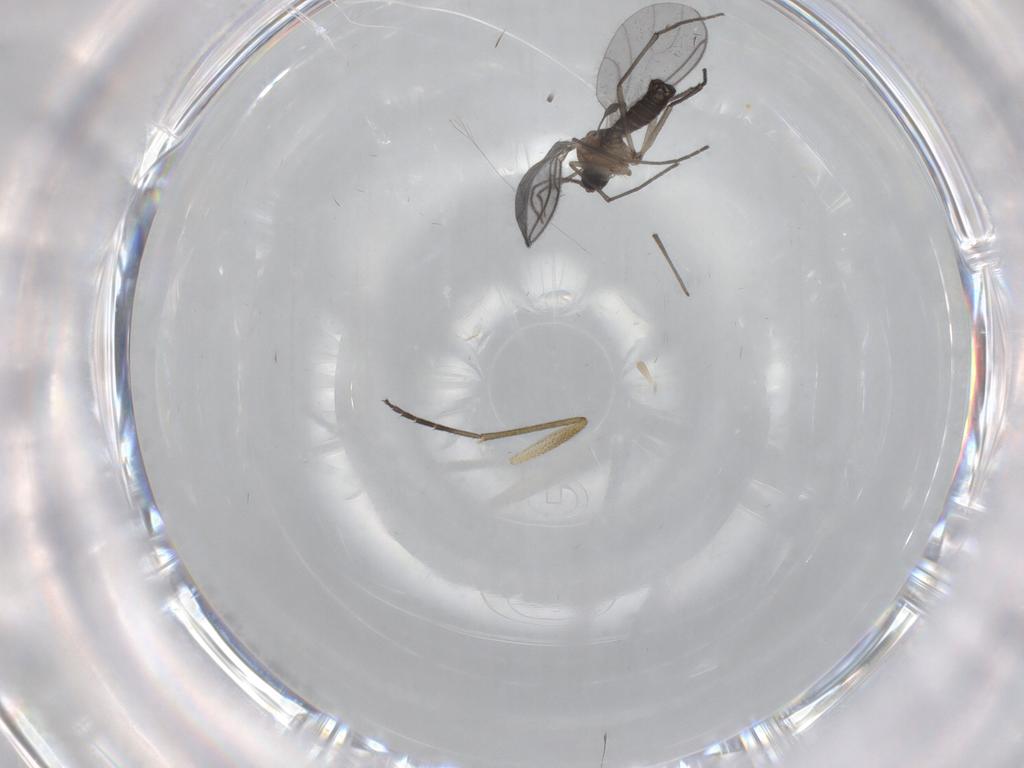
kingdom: Animalia
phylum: Arthropoda
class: Insecta
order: Diptera
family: Sciaridae
